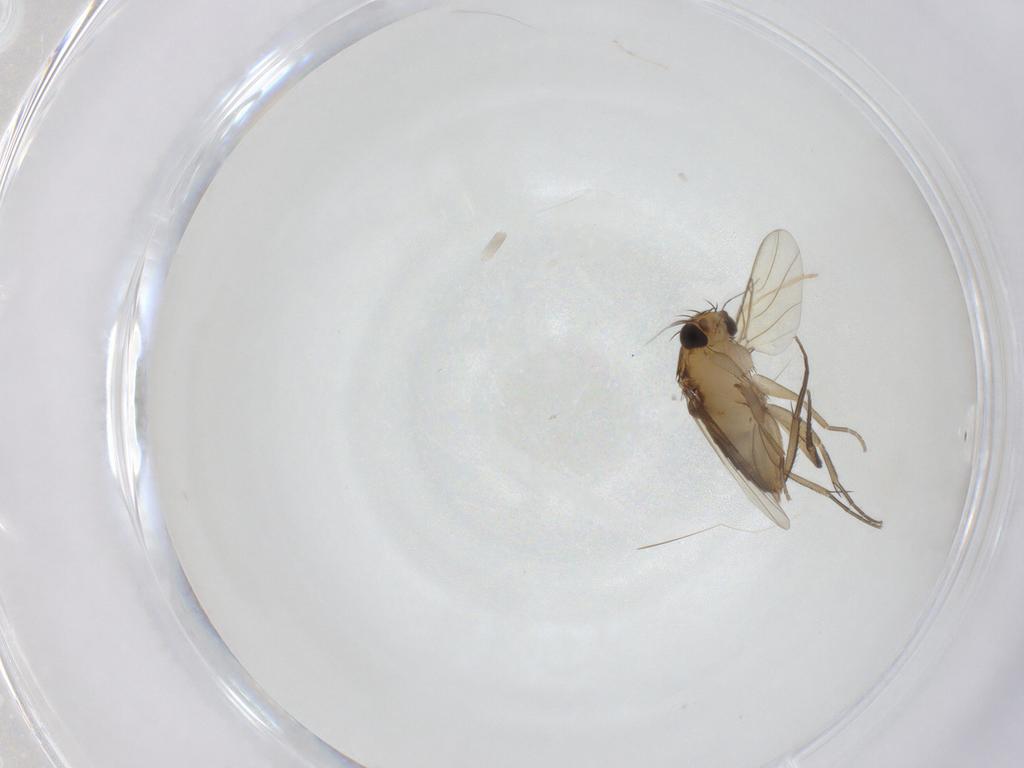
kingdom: Animalia
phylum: Arthropoda
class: Insecta
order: Diptera
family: Phoridae
